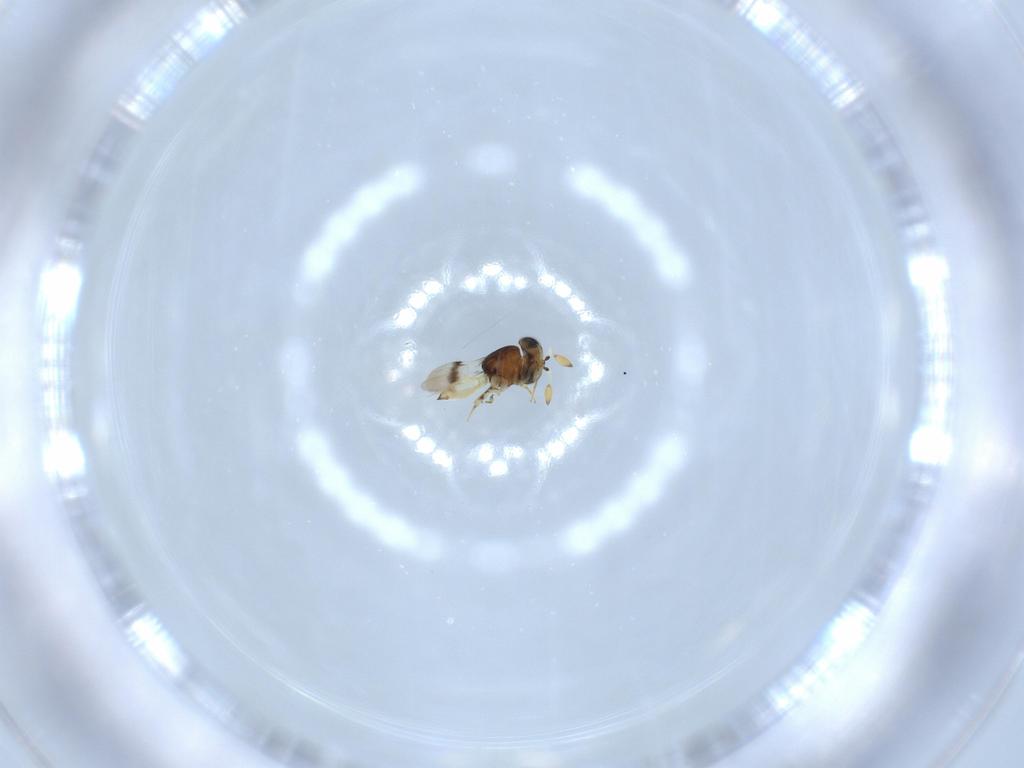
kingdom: Animalia
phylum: Arthropoda
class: Insecta
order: Hymenoptera
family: Scelionidae
